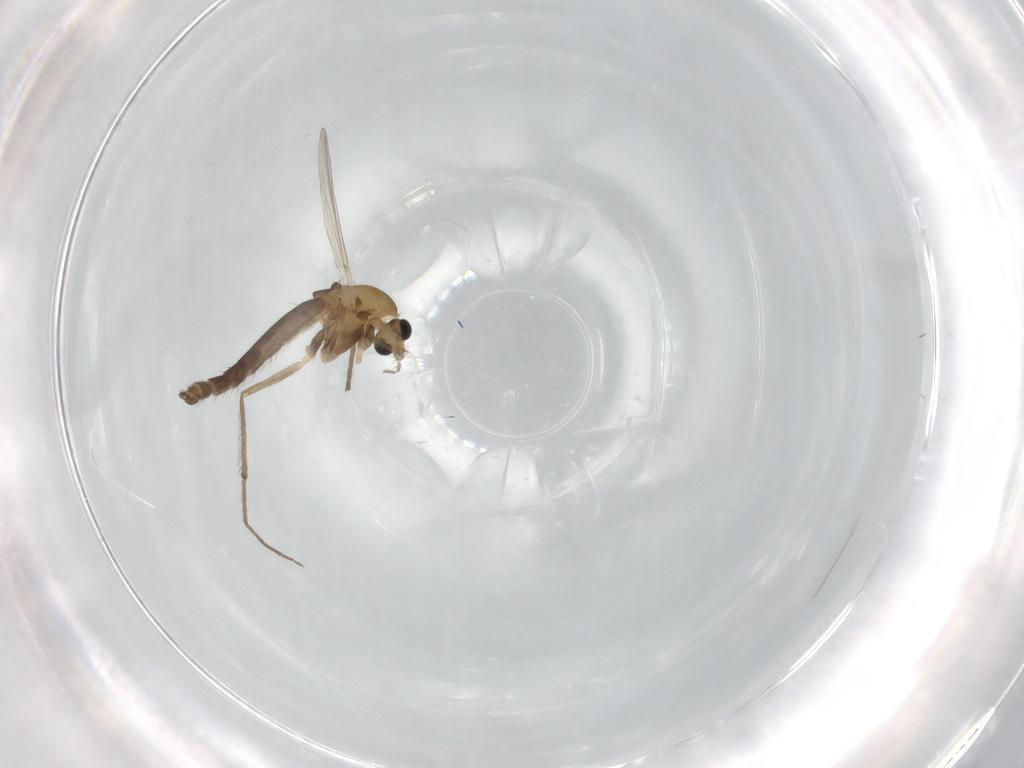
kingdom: Animalia
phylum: Arthropoda
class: Insecta
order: Diptera
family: Chironomidae
